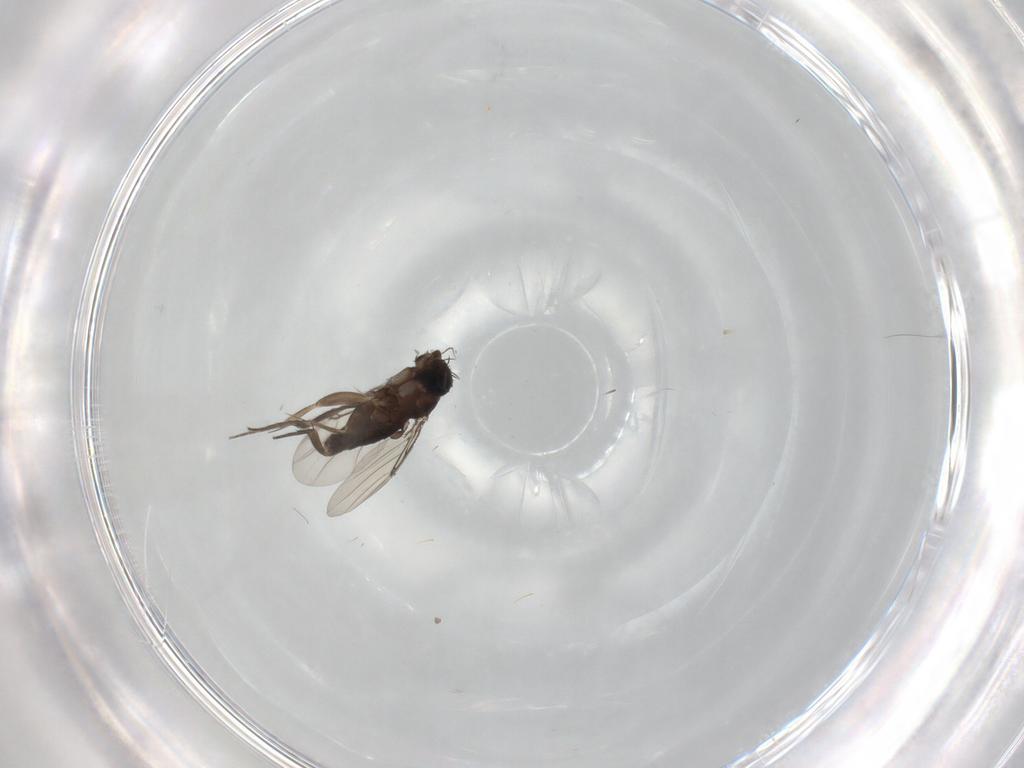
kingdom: Animalia
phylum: Arthropoda
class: Insecta
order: Diptera
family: Phoridae
